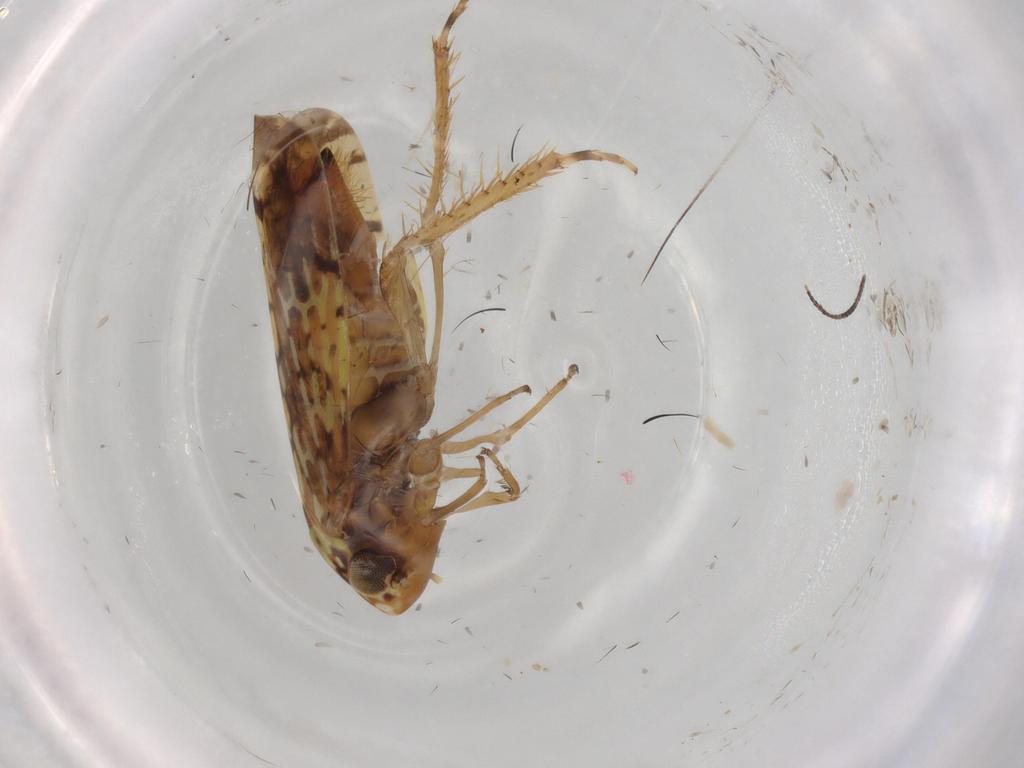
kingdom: Animalia
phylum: Arthropoda
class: Insecta
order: Hemiptera
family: Cicadellidae
